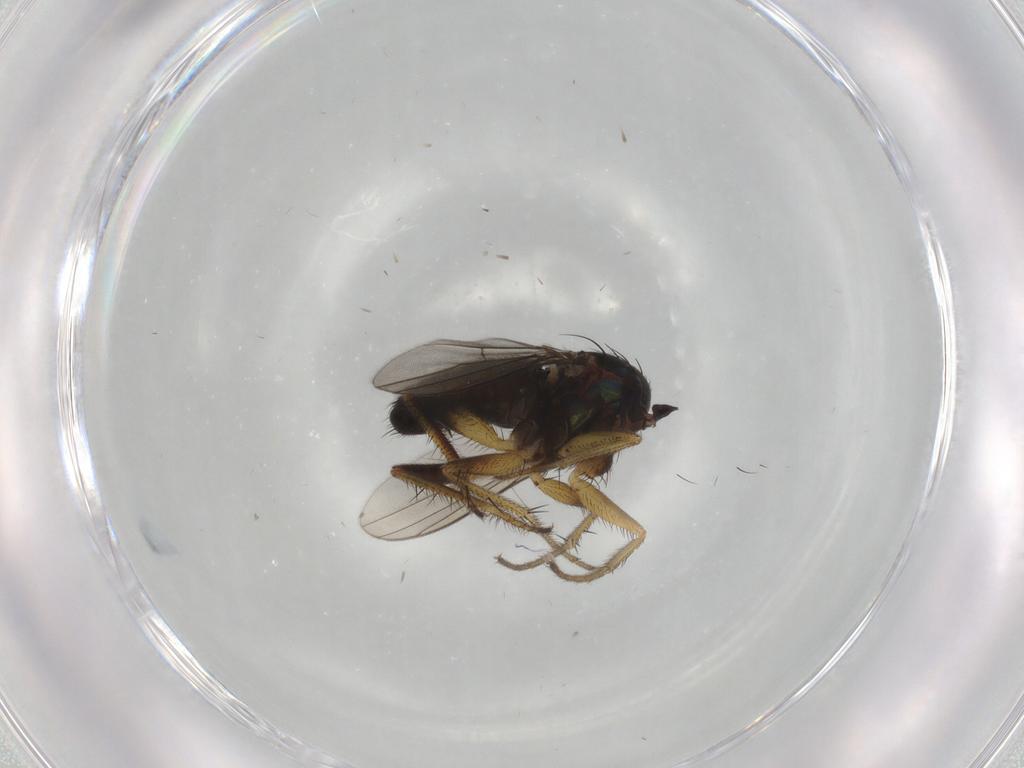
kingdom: Animalia
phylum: Arthropoda
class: Insecta
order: Diptera
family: Dolichopodidae
